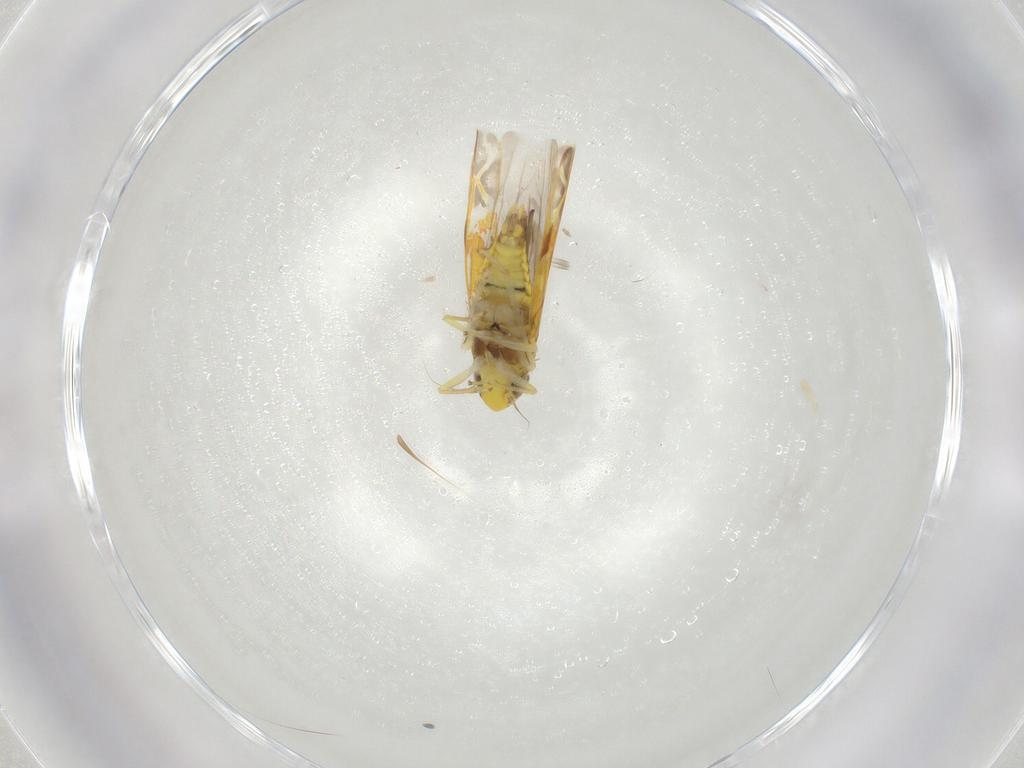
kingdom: Animalia
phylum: Arthropoda
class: Insecta
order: Hemiptera
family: Cicadellidae
